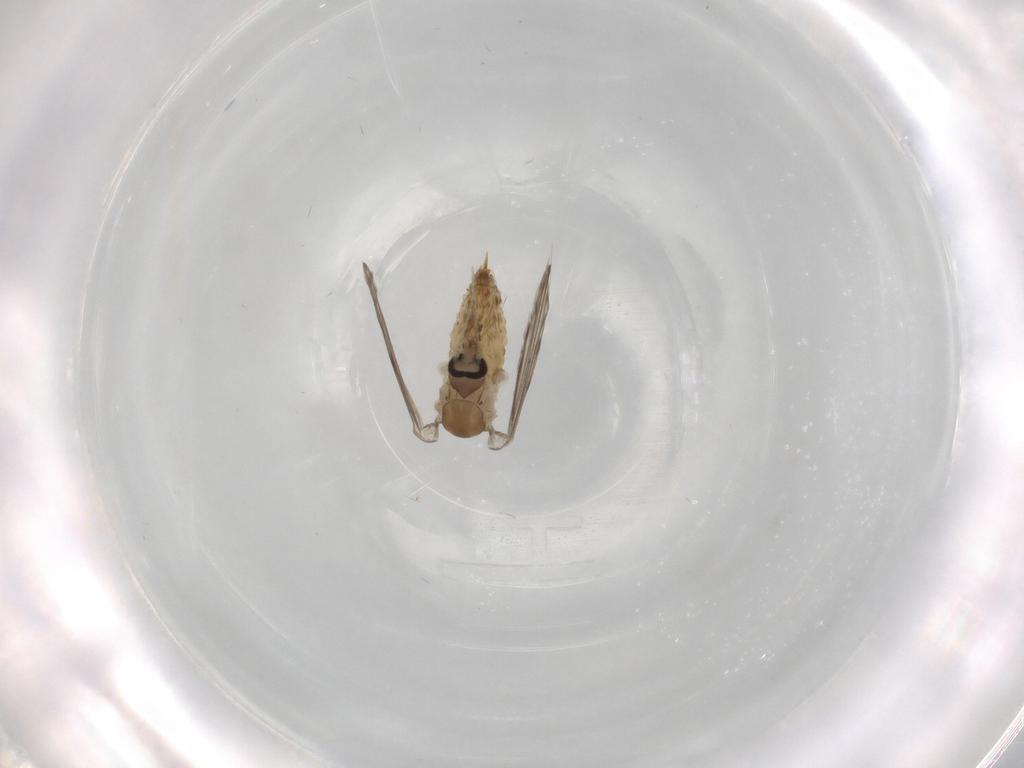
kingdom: Animalia
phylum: Arthropoda
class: Insecta
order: Diptera
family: Psychodidae
